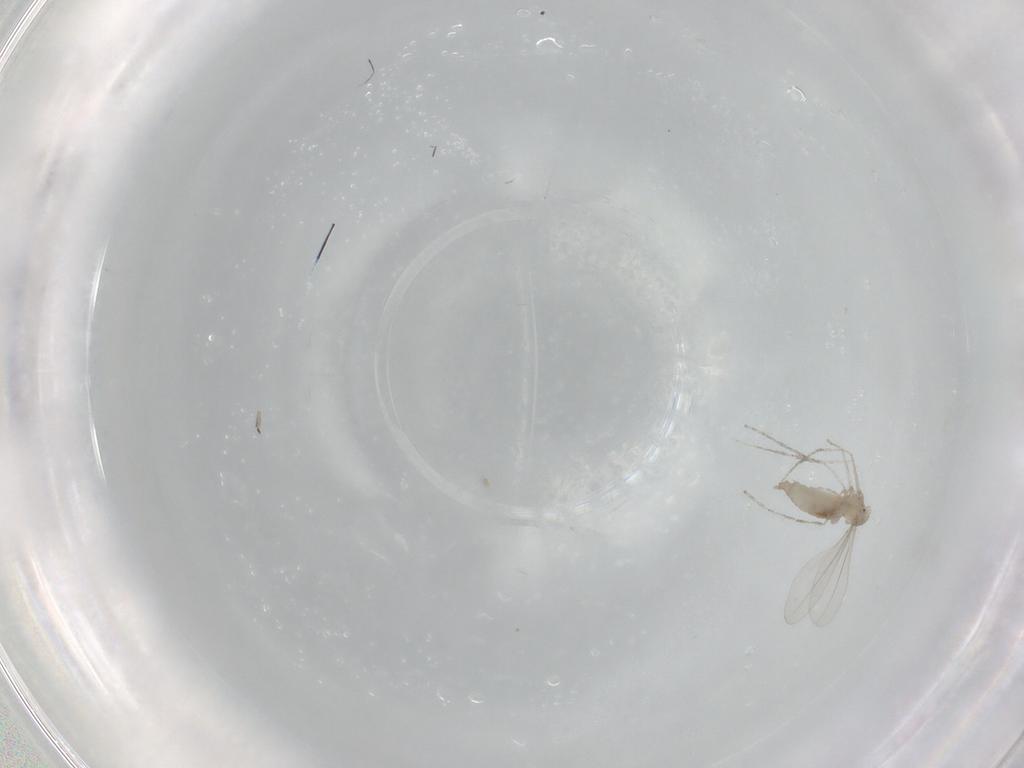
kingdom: Animalia
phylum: Arthropoda
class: Insecta
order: Diptera
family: Cecidomyiidae
